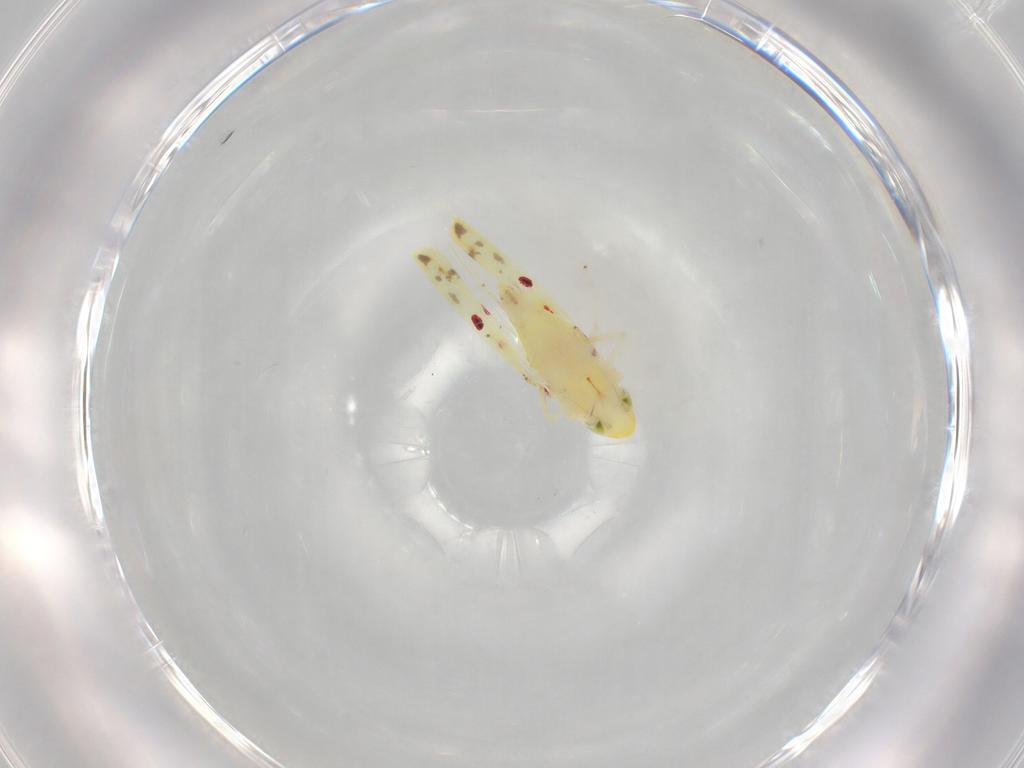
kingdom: Animalia
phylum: Arthropoda
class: Insecta
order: Hemiptera
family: Cicadellidae
